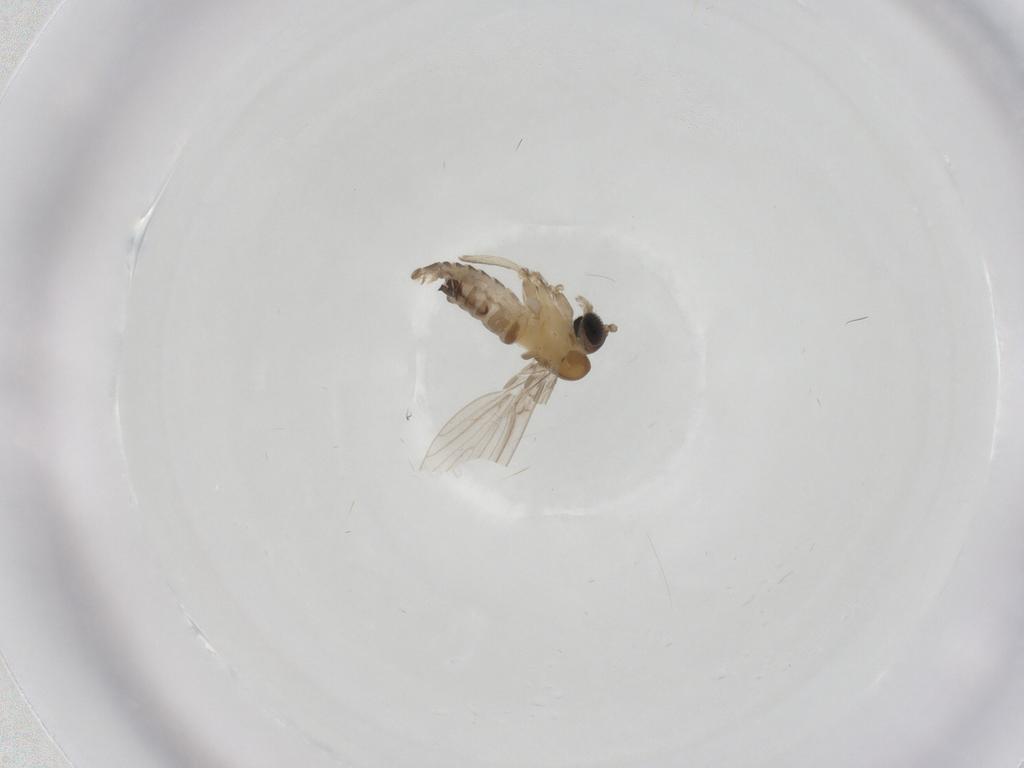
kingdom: Animalia
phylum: Arthropoda
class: Insecta
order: Diptera
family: Psychodidae
